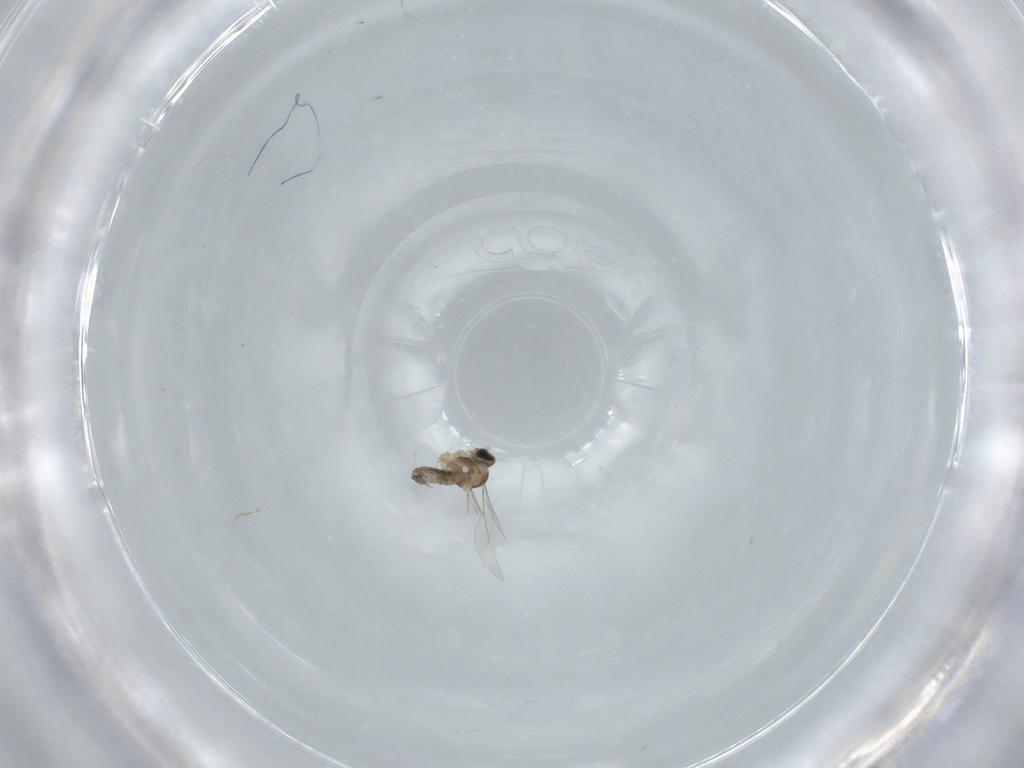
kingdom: Animalia
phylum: Arthropoda
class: Insecta
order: Diptera
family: Cecidomyiidae
